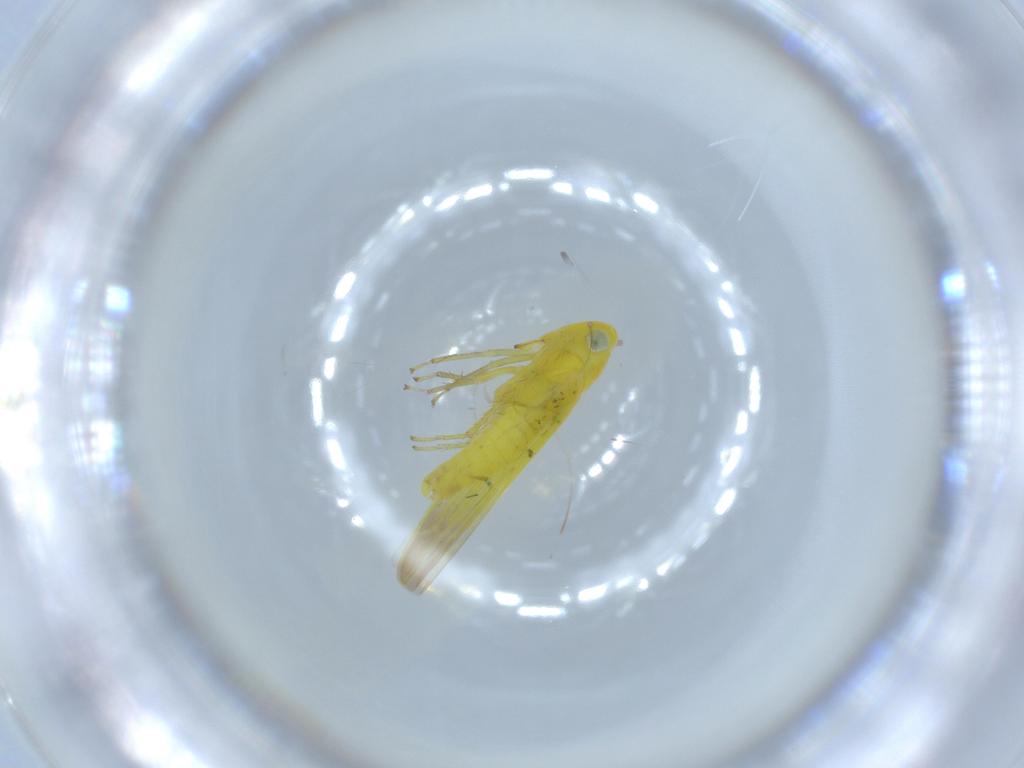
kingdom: Animalia
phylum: Arthropoda
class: Insecta
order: Hemiptera
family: Cicadellidae
